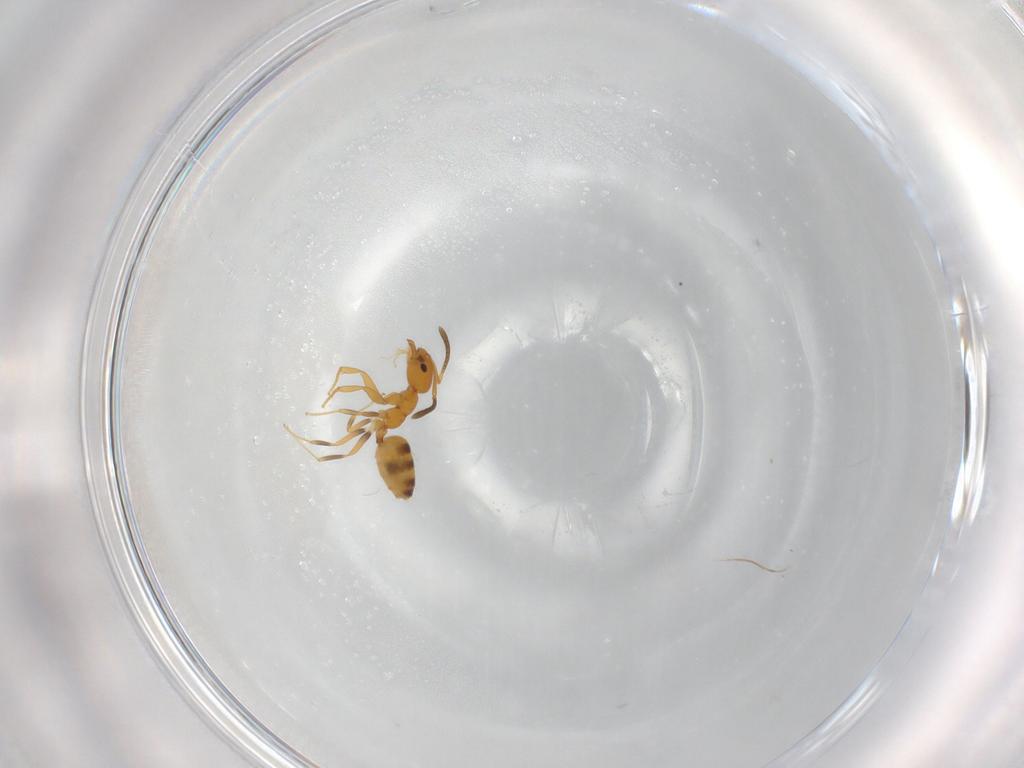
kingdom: Animalia
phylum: Arthropoda
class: Insecta
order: Hymenoptera
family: Formicidae
